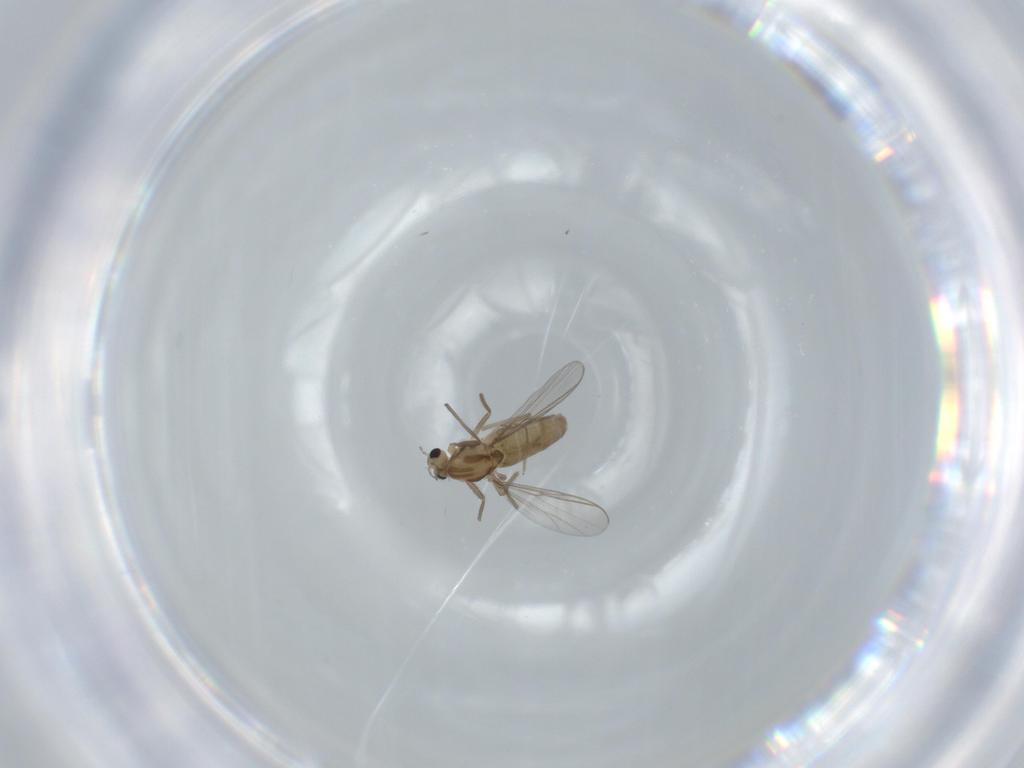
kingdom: Animalia
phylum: Arthropoda
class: Insecta
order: Diptera
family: Chironomidae
